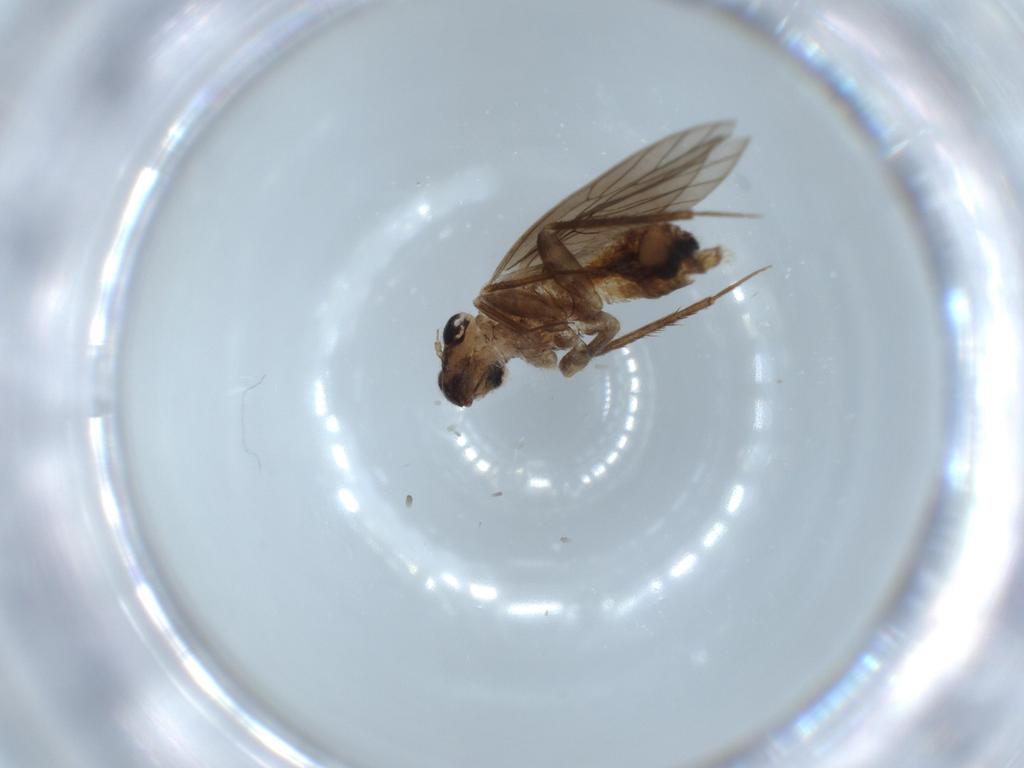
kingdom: Animalia
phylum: Arthropoda
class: Insecta
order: Psocodea
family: Lepidopsocidae
